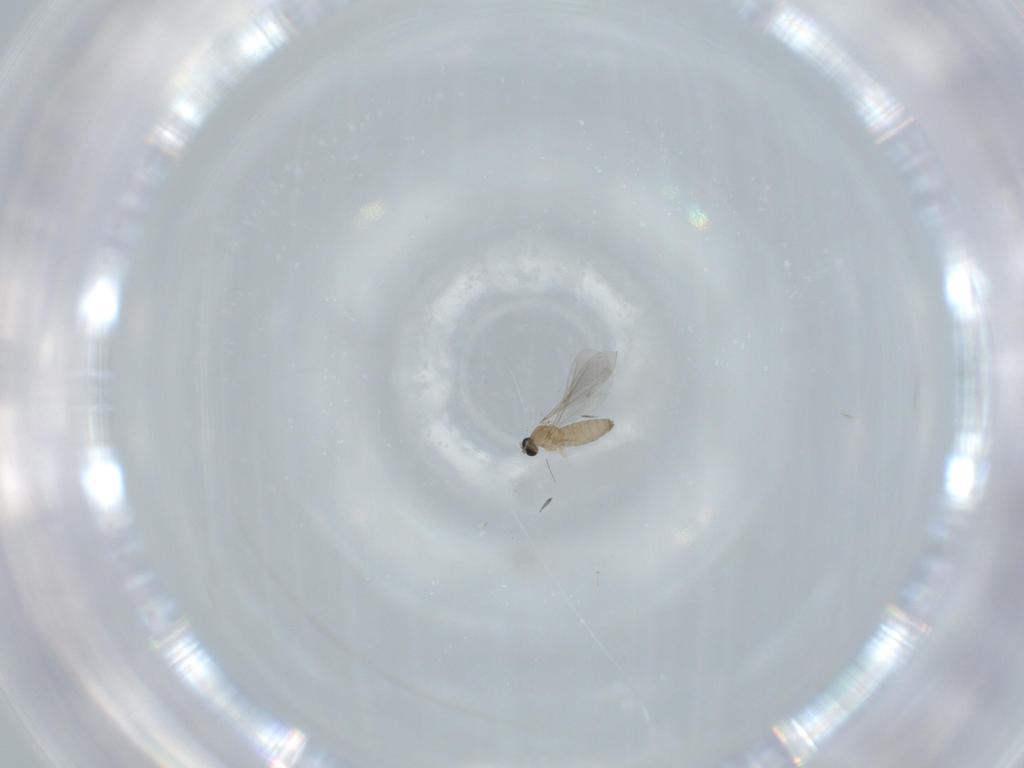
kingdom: Animalia
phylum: Arthropoda
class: Insecta
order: Diptera
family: Cecidomyiidae
